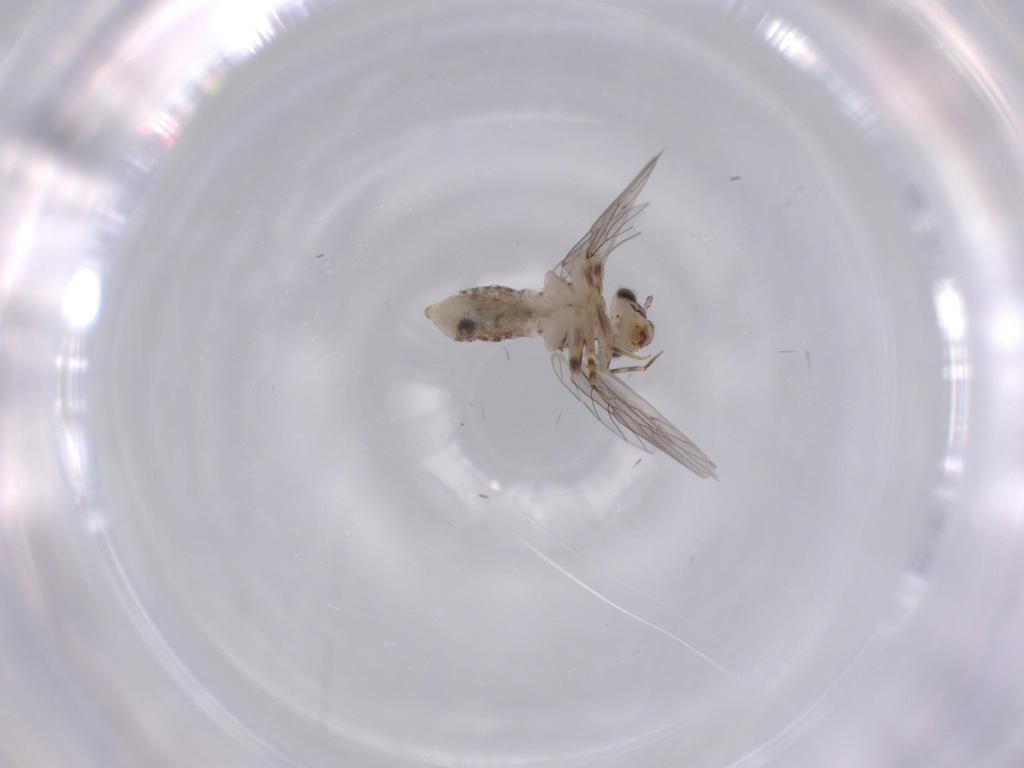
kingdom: Animalia
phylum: Arthropoda
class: Insecta
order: Psocodea
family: Lepidopsocidae
